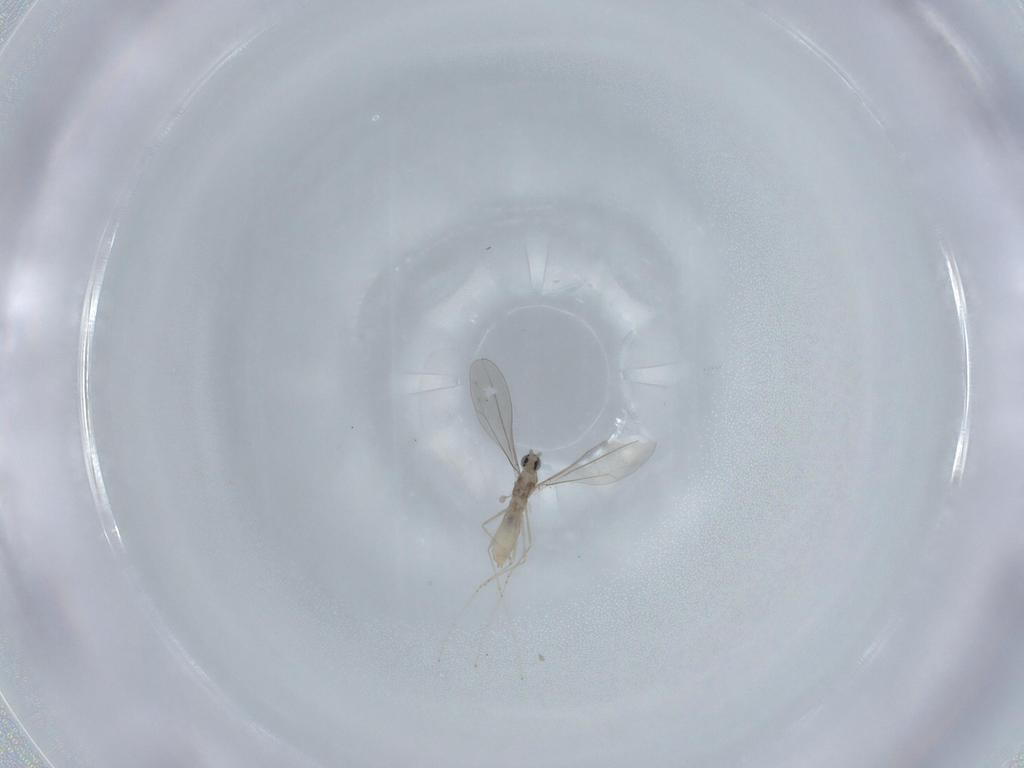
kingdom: Animalia
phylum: Arthropoda
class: Insecta
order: Diptera
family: Cecidomyiidae
